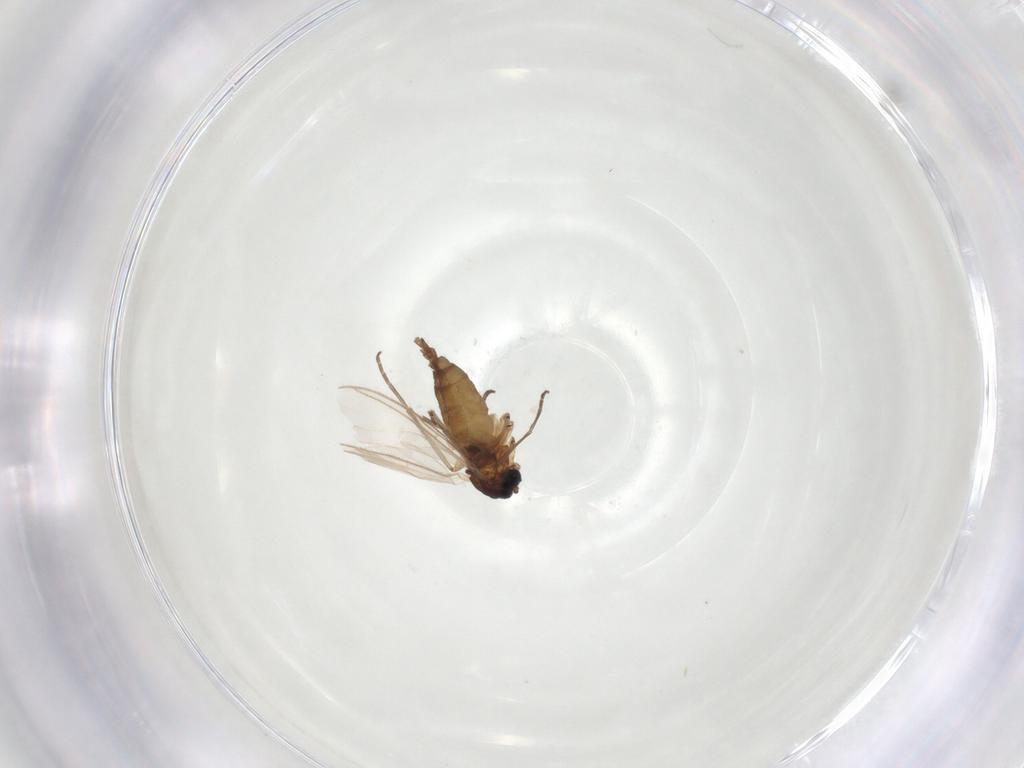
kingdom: Animalia
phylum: Arthropoda
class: Insecta
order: Diptera
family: Sciaridae
